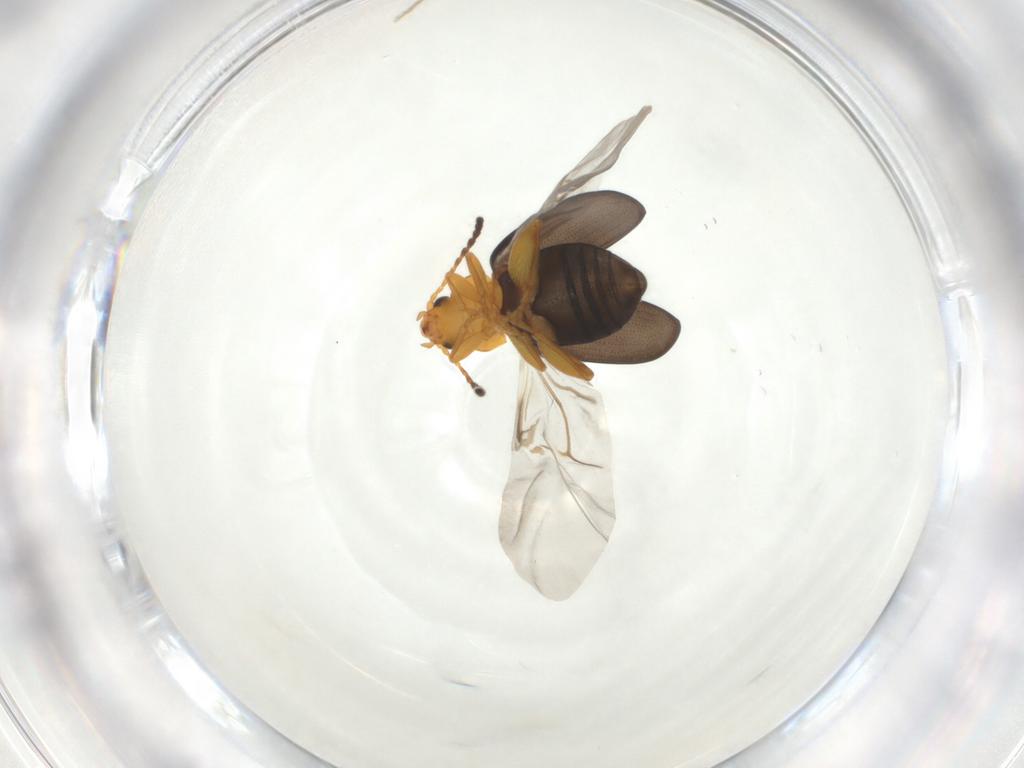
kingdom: Animalia
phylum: Arthropoda
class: Insecta
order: Coleoptera
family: Chrysomelidae
